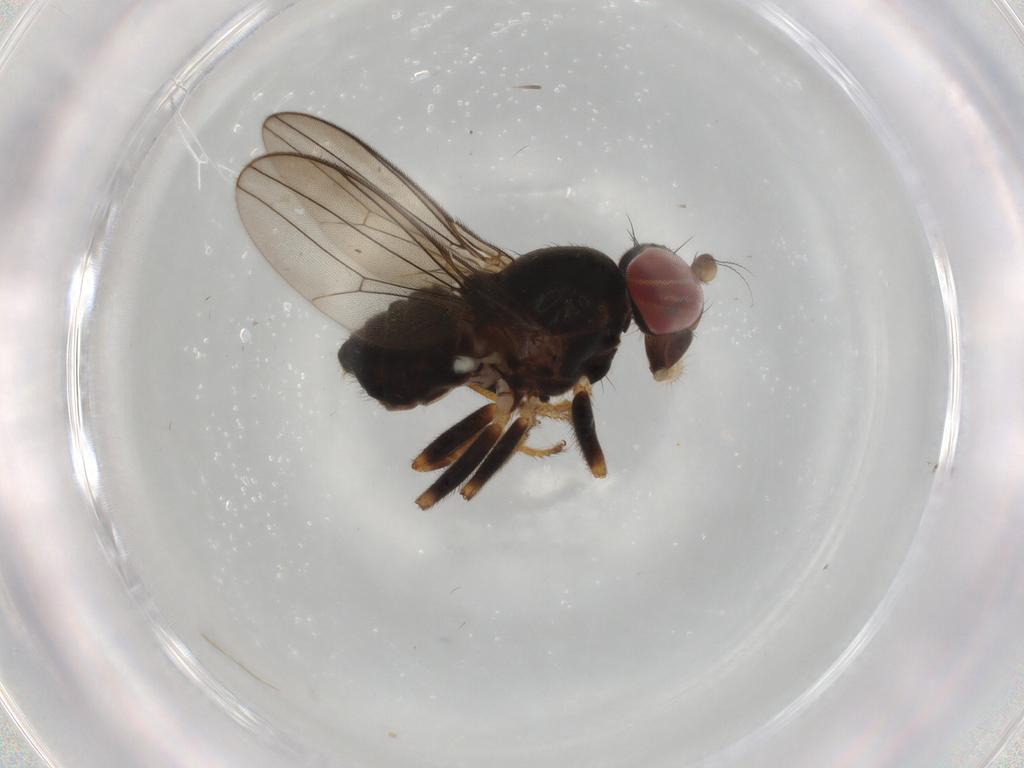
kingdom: Animalia
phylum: Arthropoda
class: Insecta
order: Diptera
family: Aulacigastridae
